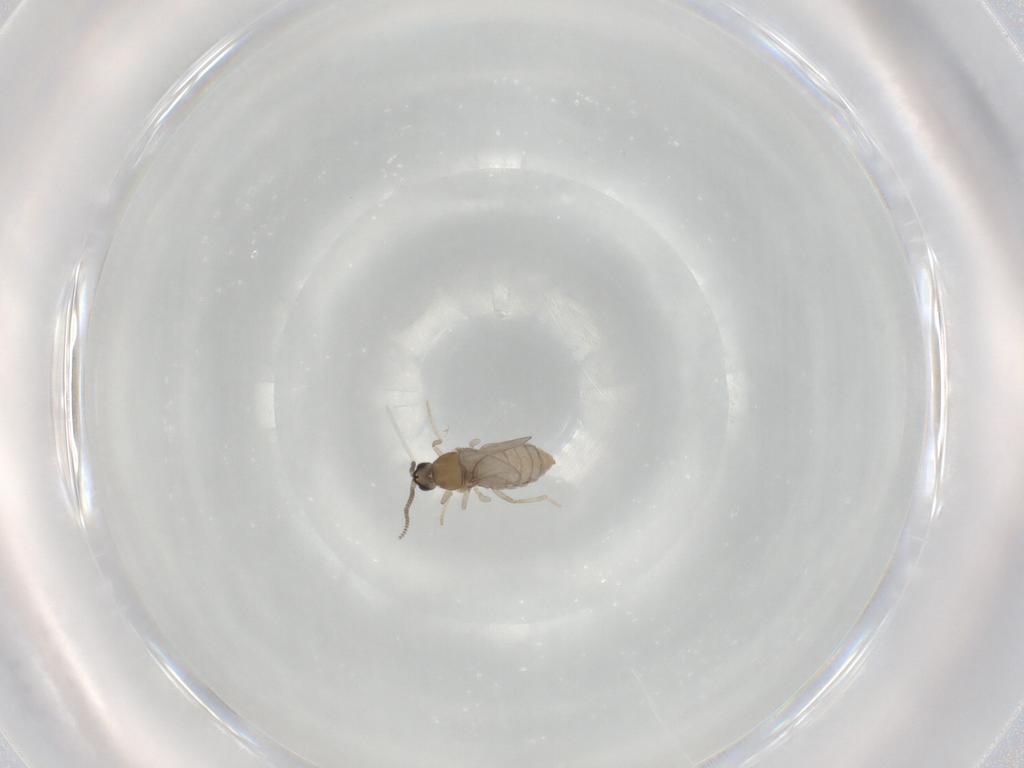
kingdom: Animalia
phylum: Arthropoda
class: Insecta
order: Diptera
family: Cecidomyiidae
